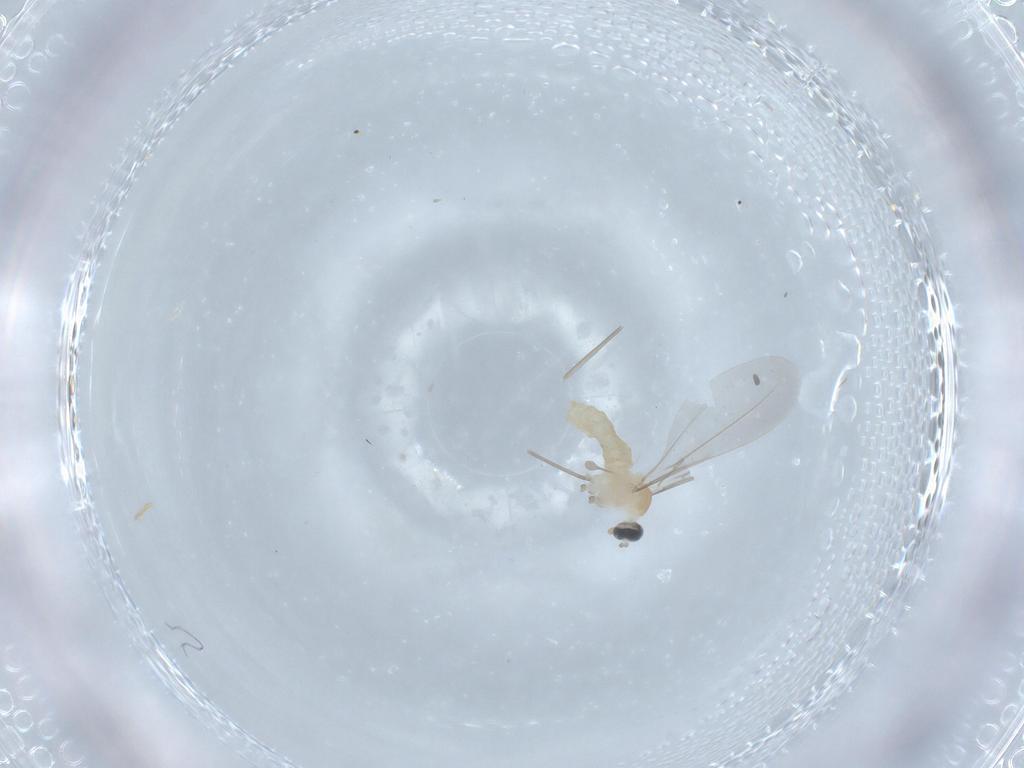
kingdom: Animalia
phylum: Arthropoda
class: Insecta
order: Diptera
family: Cecidomyiidae
